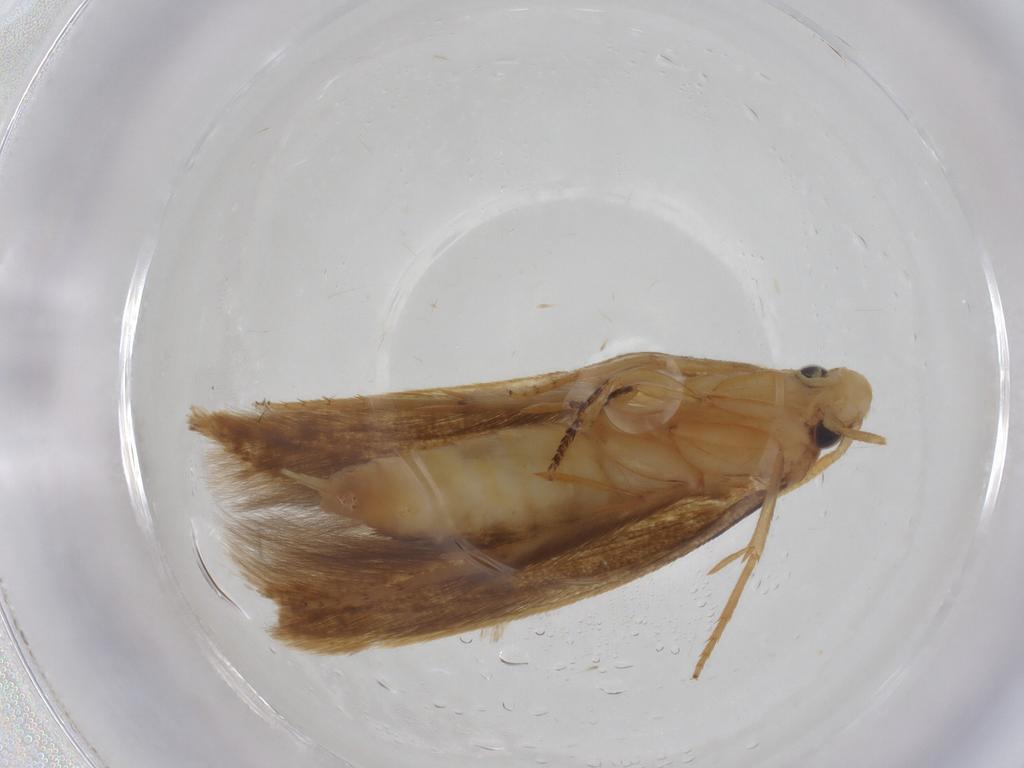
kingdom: Animalia
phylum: Arthropoda
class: Insecta
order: Lepidoptera
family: Tineidae
